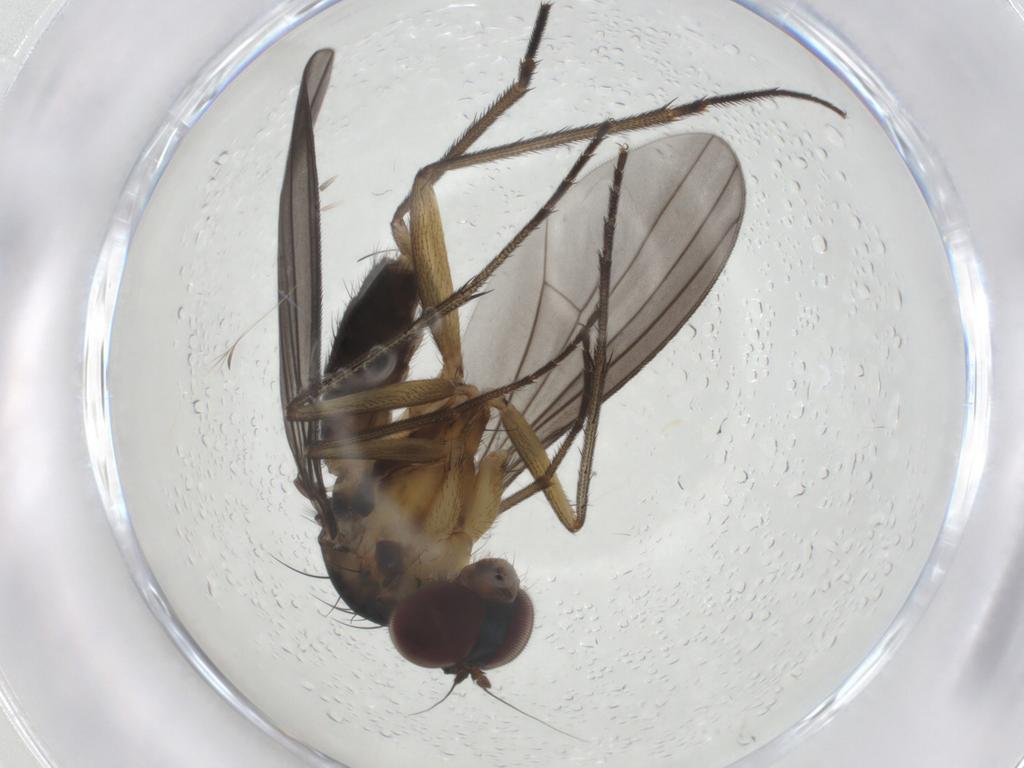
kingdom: Animalia
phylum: Arthropoda
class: Insecta
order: Diptera
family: Dolichopodidae
